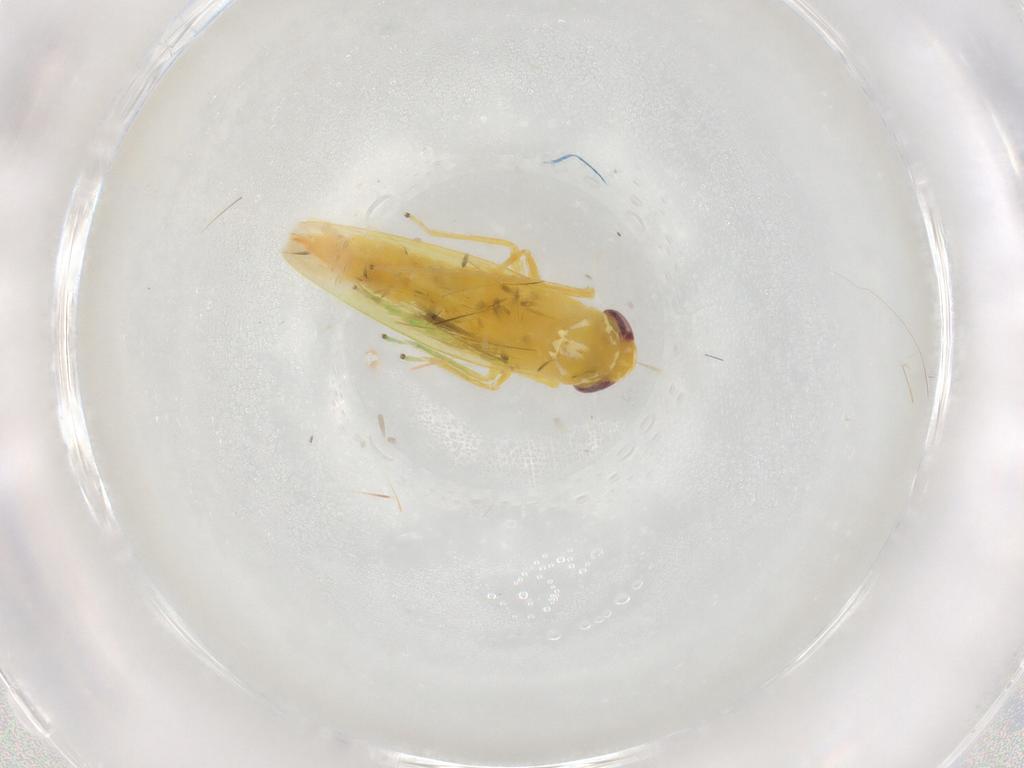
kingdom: Animalia
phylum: Arthropoda
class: Insecta
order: Hemiptera
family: Cicadellidae
